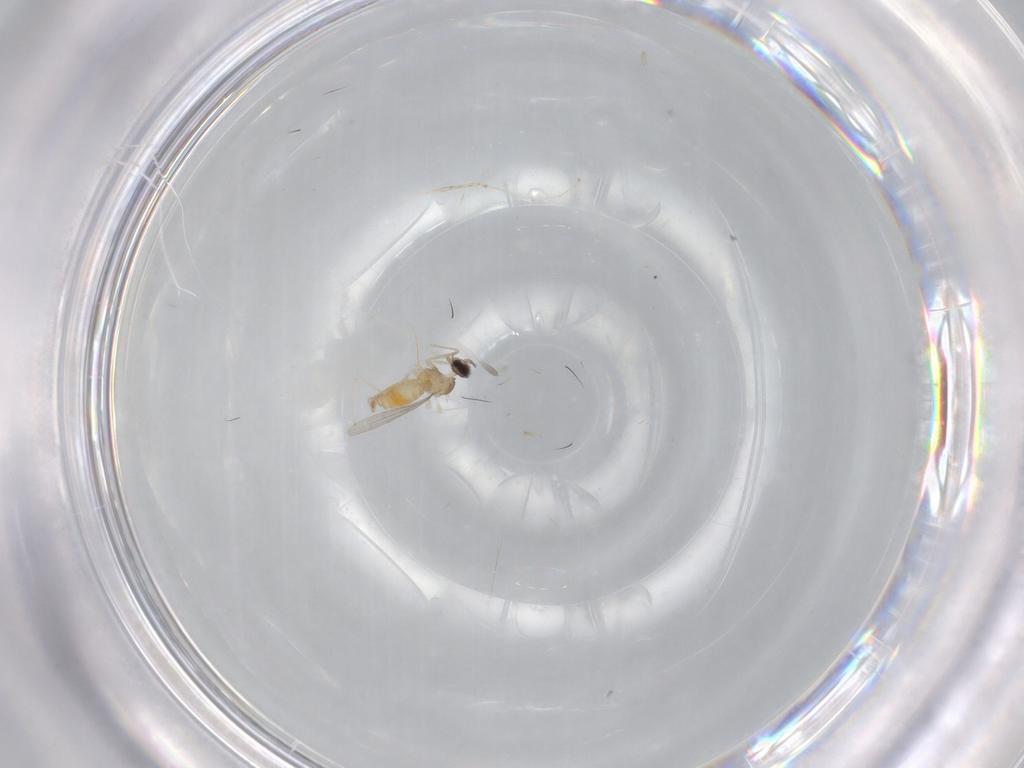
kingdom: Animalia
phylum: Arthropoda
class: Insecta
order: Diptera
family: Cecidomyiidae
